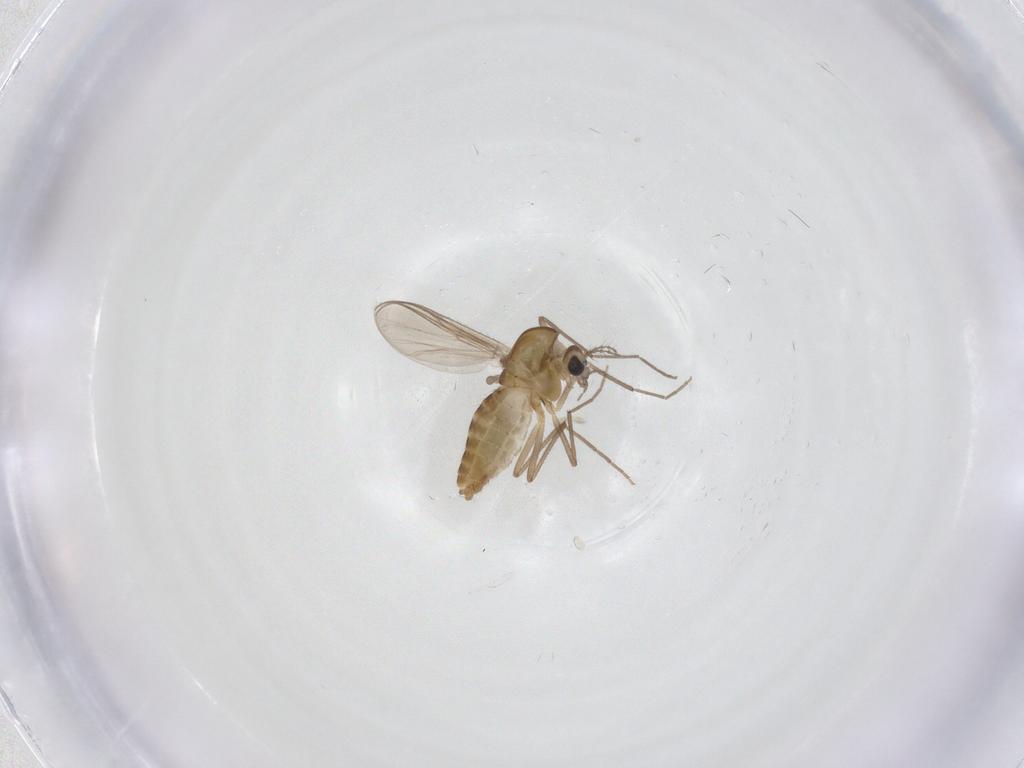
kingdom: Animalia
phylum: Arthropoda
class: Insecta
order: Diptera
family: Chironomidae
